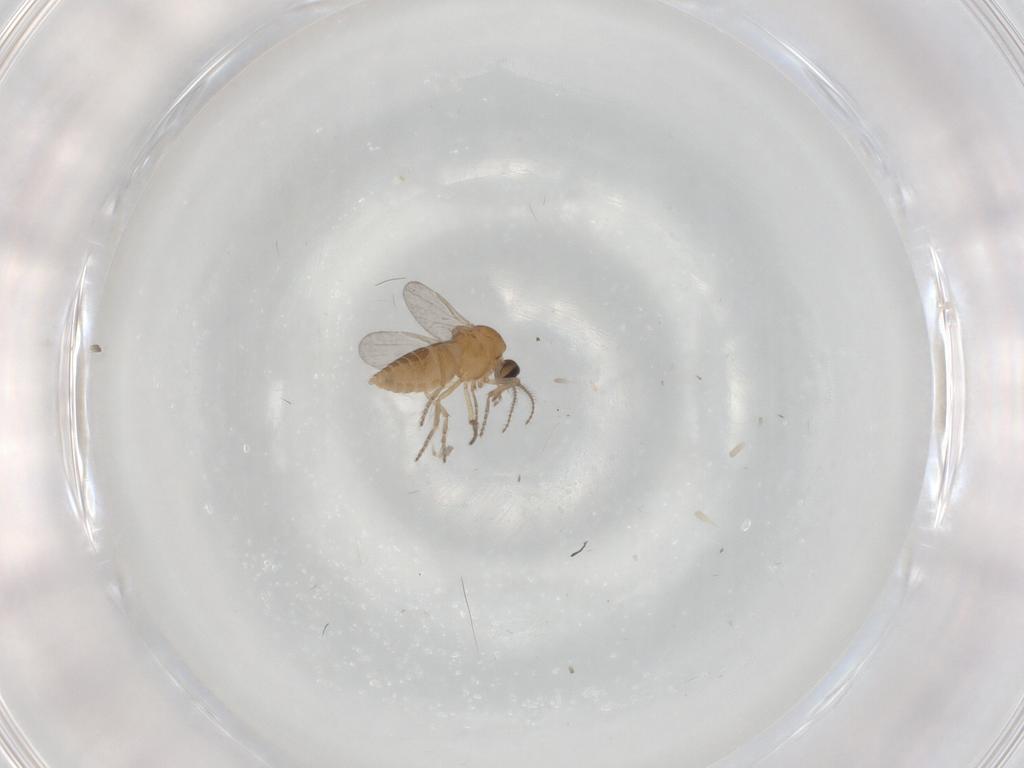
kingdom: Animalia
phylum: Arthropoda
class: Insecta
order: Diptera
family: Ceratopogonidae
